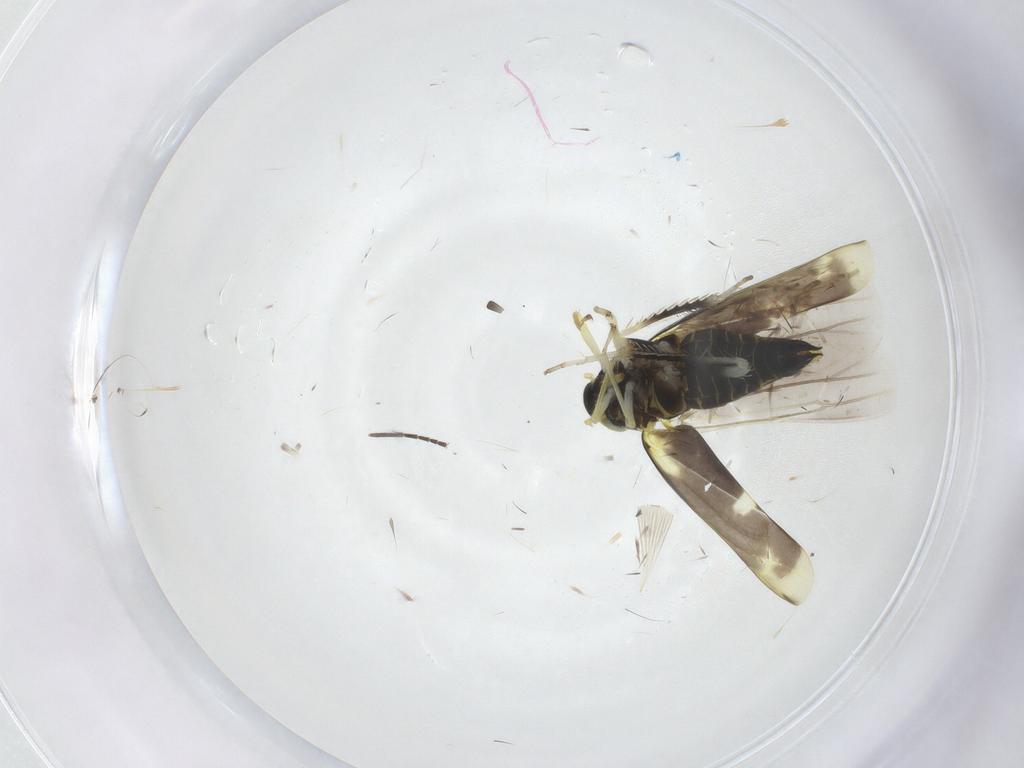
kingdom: Animalia
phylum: Arthropoda
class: Insecta
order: Hemiptera
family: Cicadellidae
